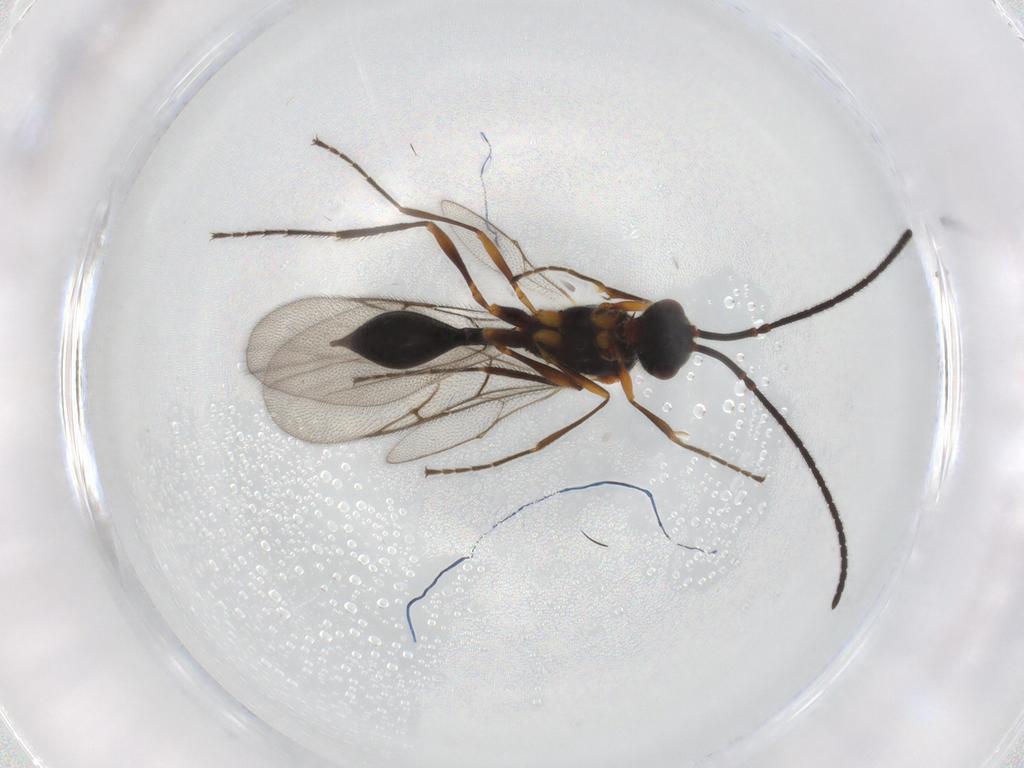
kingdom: Animalia
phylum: Arthropoda
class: Insecta
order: Hymenoptera
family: Diapriidae
